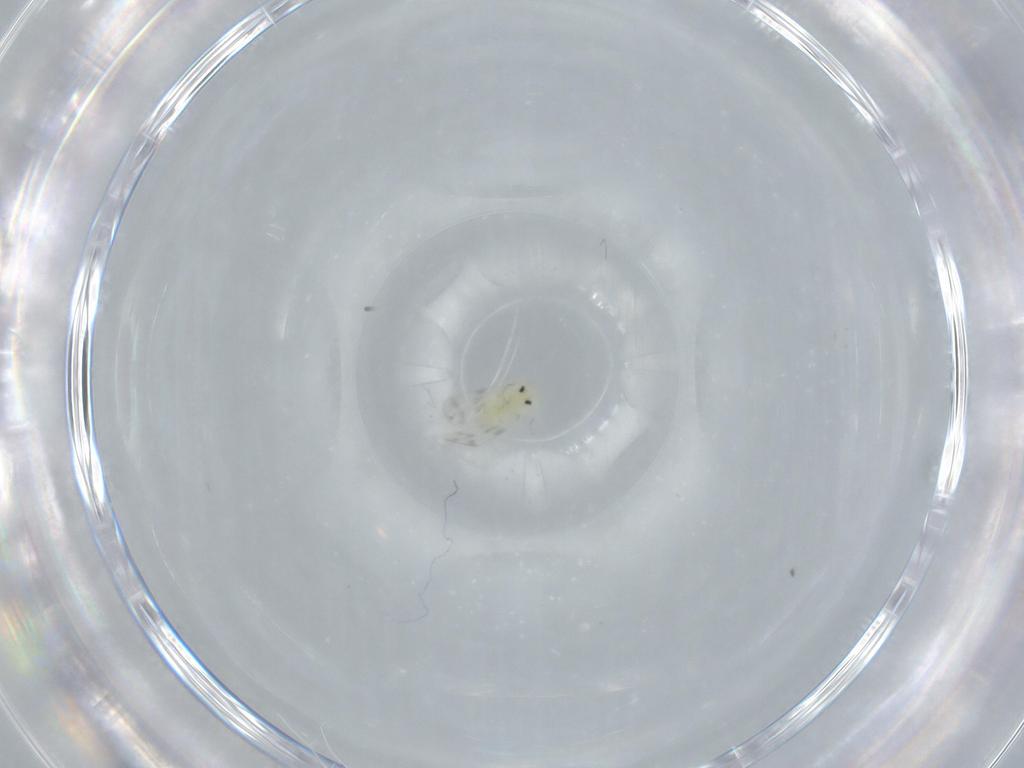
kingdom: Animalia
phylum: Arthropoda
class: Insecta
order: Hemiptera
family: Aleyrodidae
